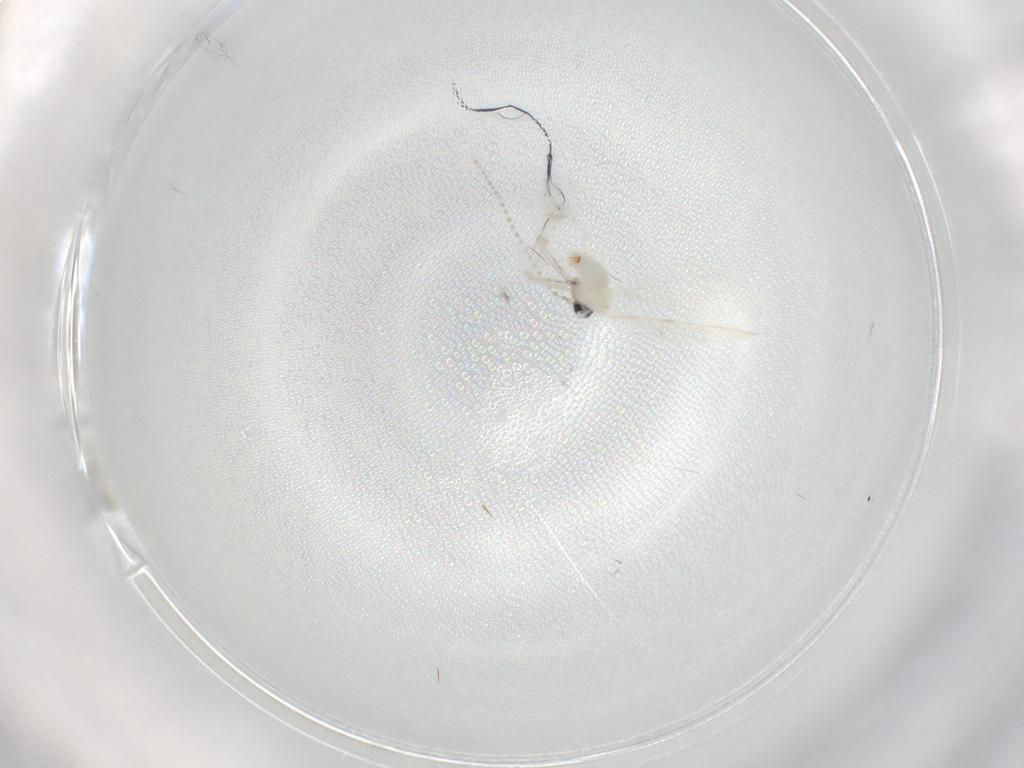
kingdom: Animalia
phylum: Arthropoda
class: Insecta
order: Diptera
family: Cecidomyiidae
